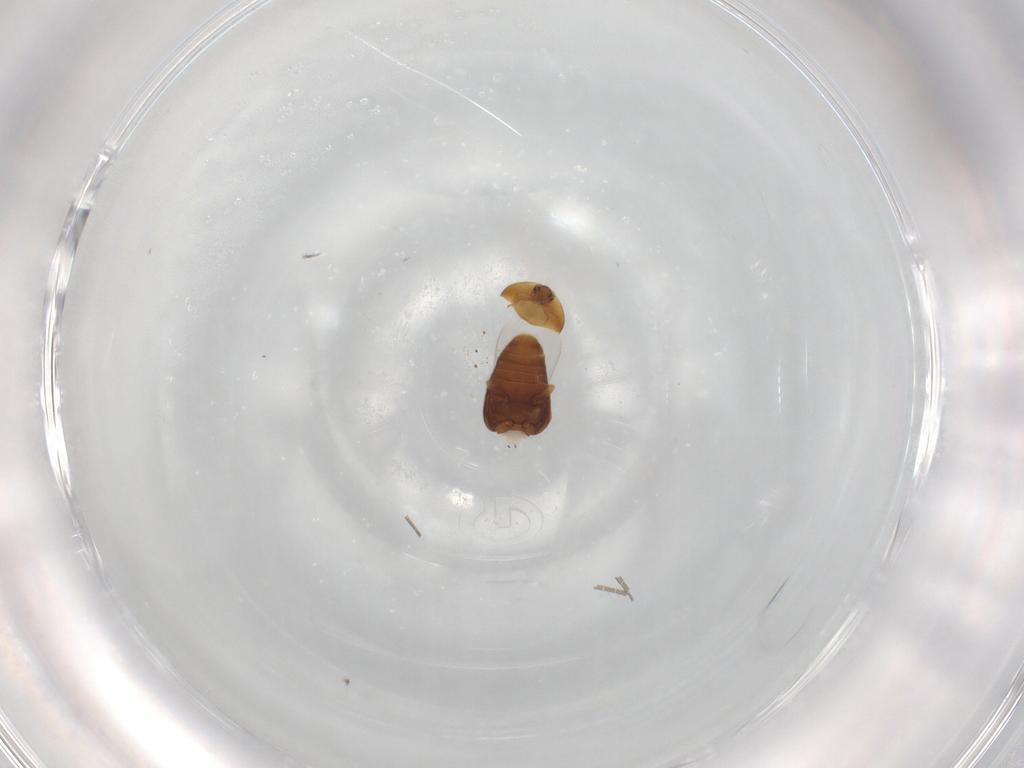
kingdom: Animalia
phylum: Arthropoda
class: Insecta
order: Coleoptera
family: Corylophidae
